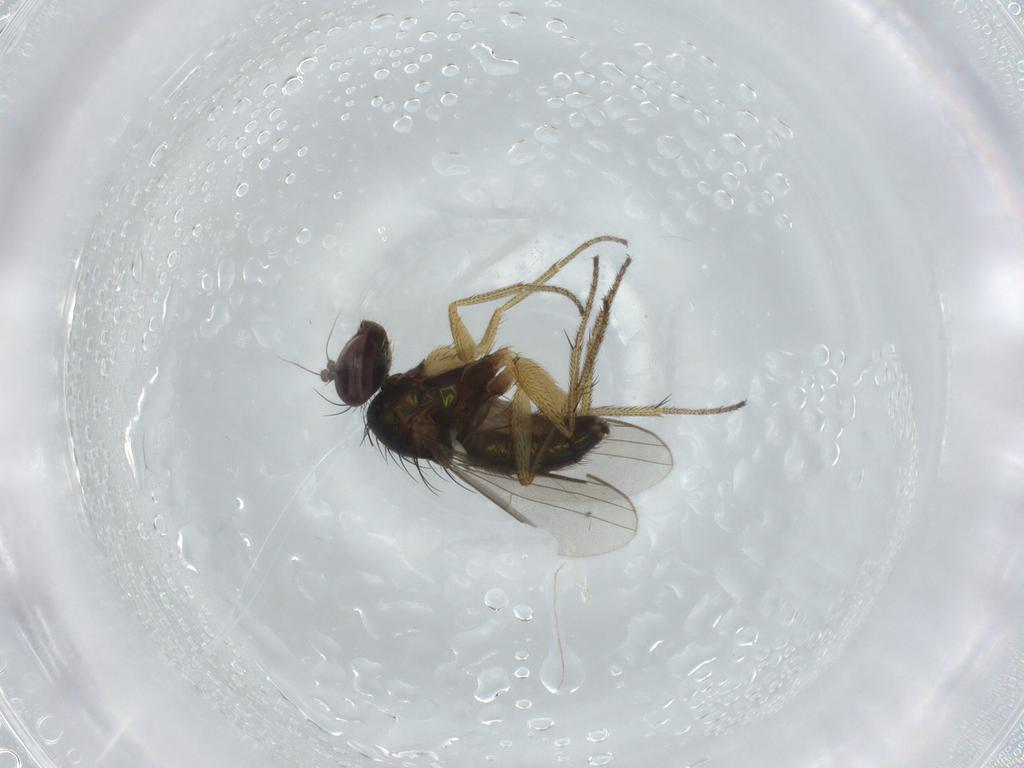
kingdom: Animalia
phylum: Arthropoda
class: Insecta
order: Diptera
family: Dolichopodidae
